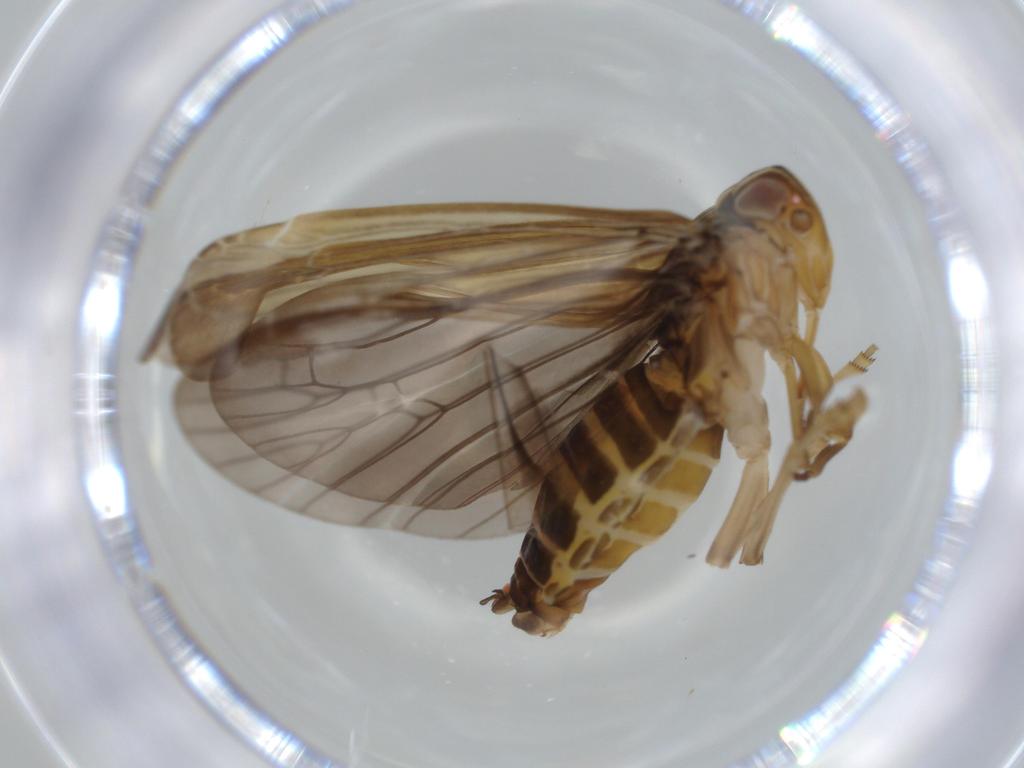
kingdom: Animalia
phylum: Arthropoda
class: Insecta
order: Hemiptera
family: Achilidae
